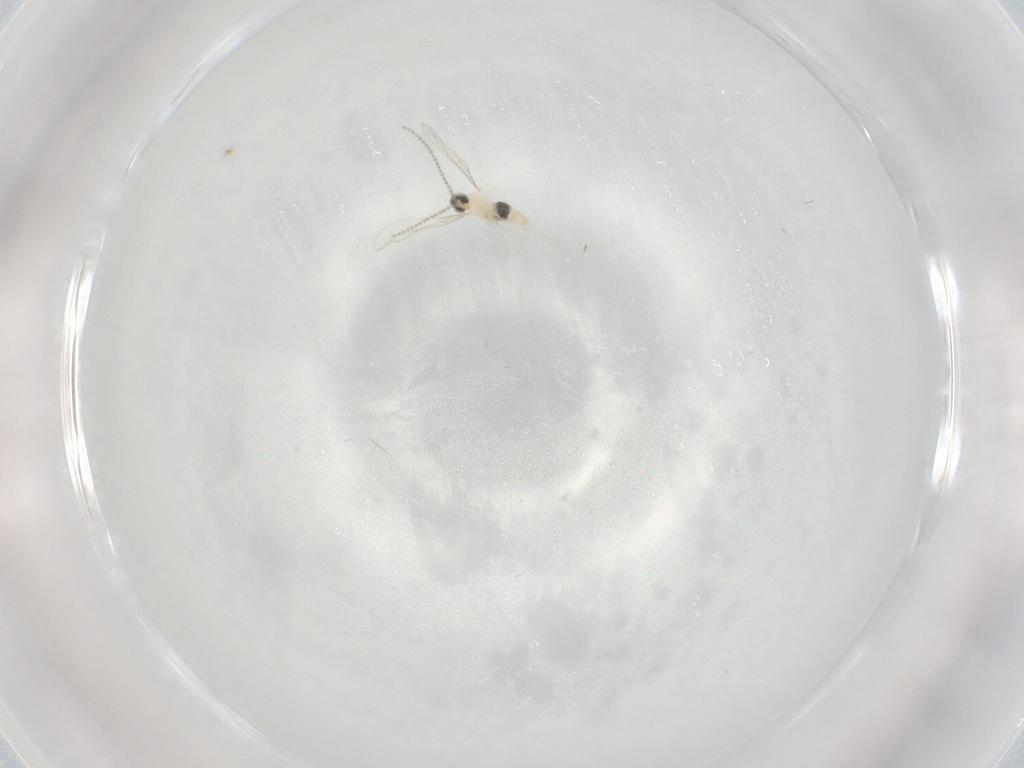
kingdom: Animalia
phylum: Arthropoda
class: Insecta
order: Diptera
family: Cecidomyiidae
